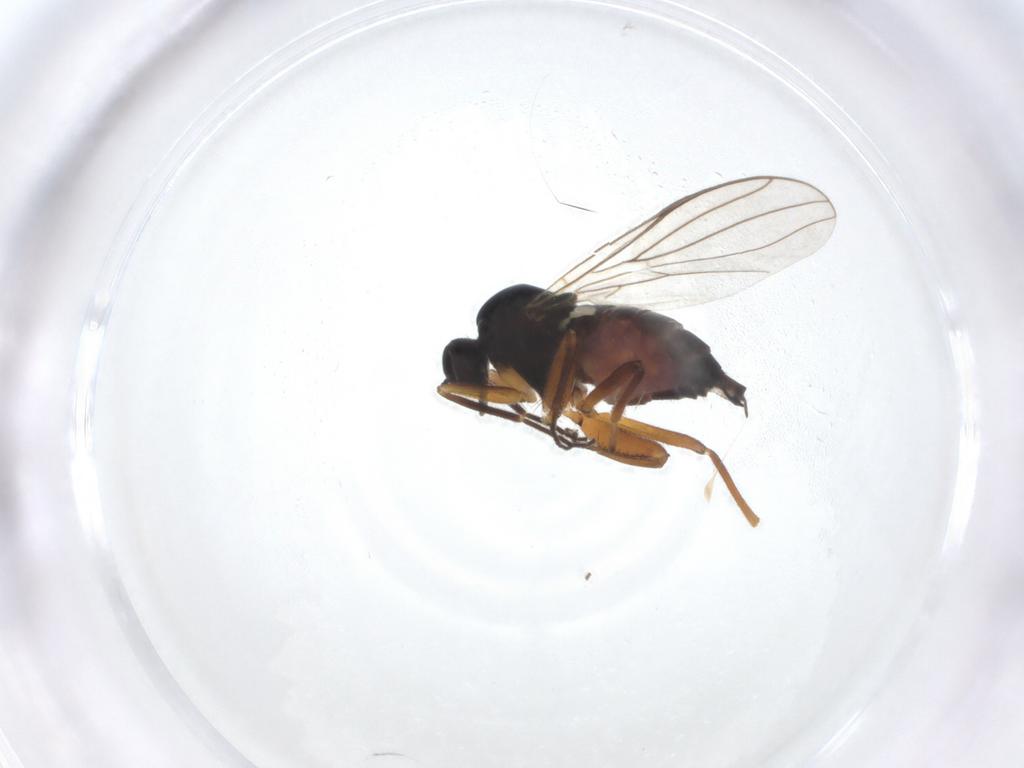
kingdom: Animalia
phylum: Arthropoda
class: Insecta
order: Diptera
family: Hybotidae
